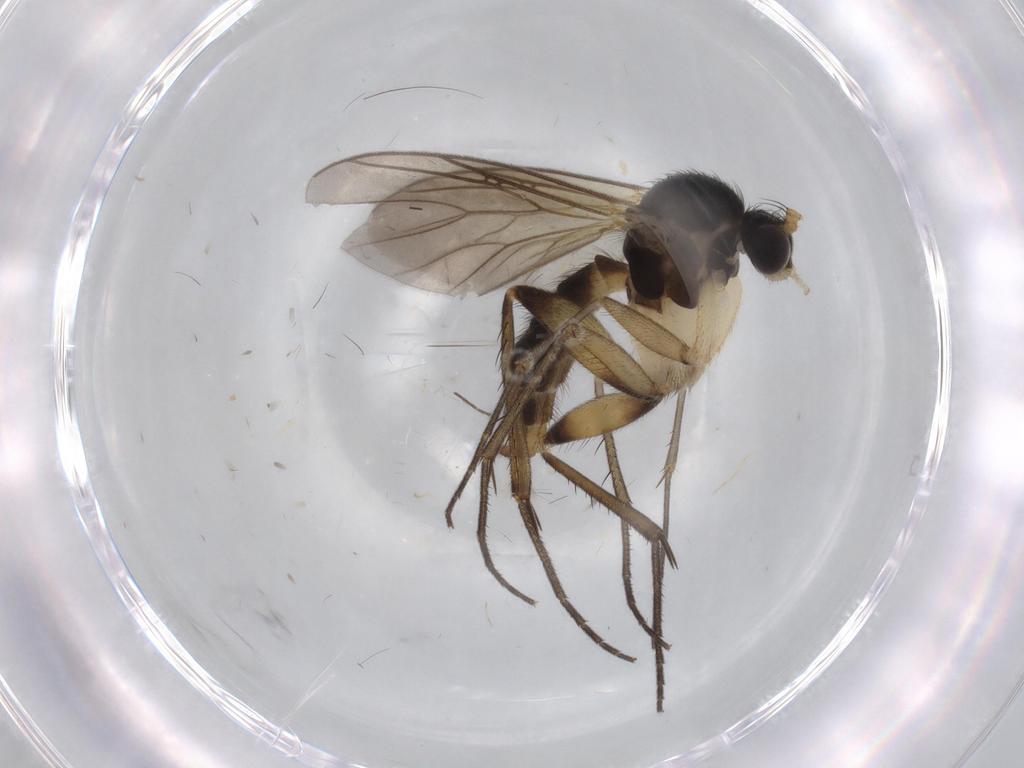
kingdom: Animalia
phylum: Arthropoda
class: Insecta
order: Diptera
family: Sciaridae
